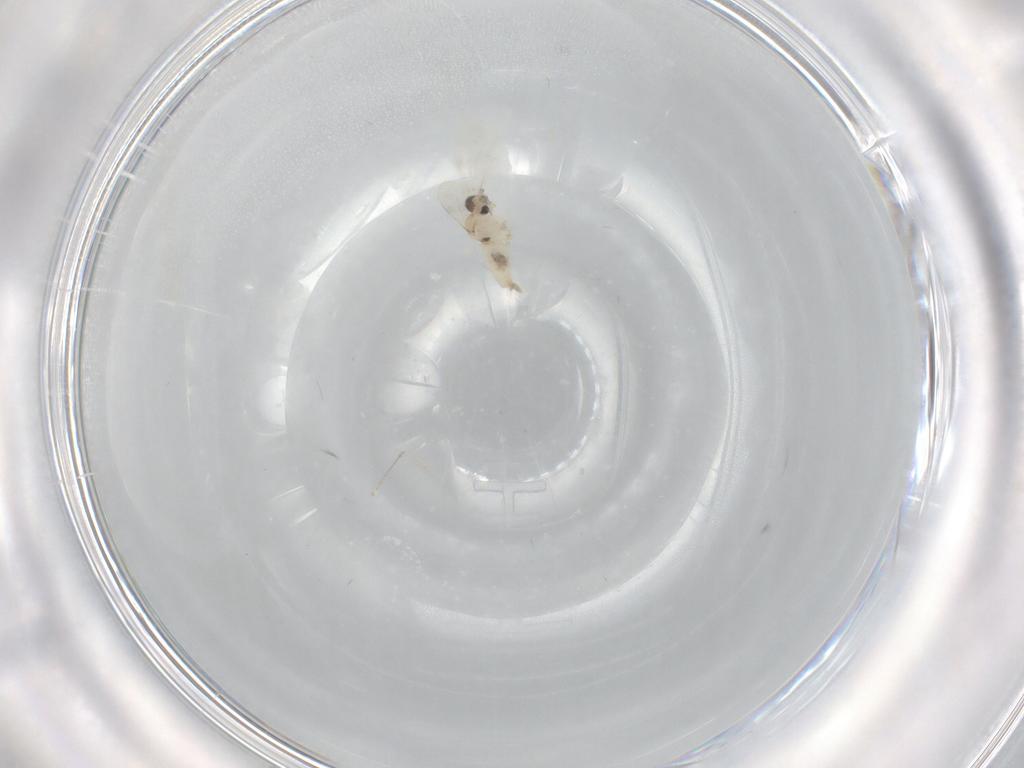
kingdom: Animalia
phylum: Arthropoda
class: Insecta
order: Diptera
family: Cecidomyiidae
